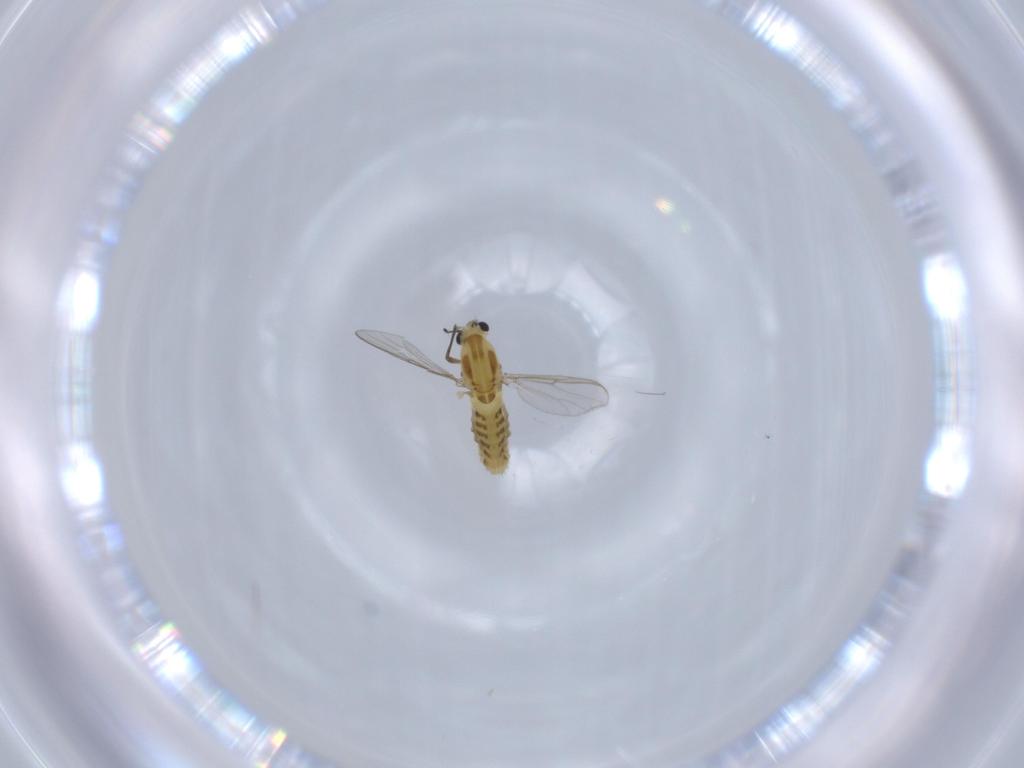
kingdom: Animalia
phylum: Arthropoda
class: Insecta
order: Diptera
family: Chironomidae
